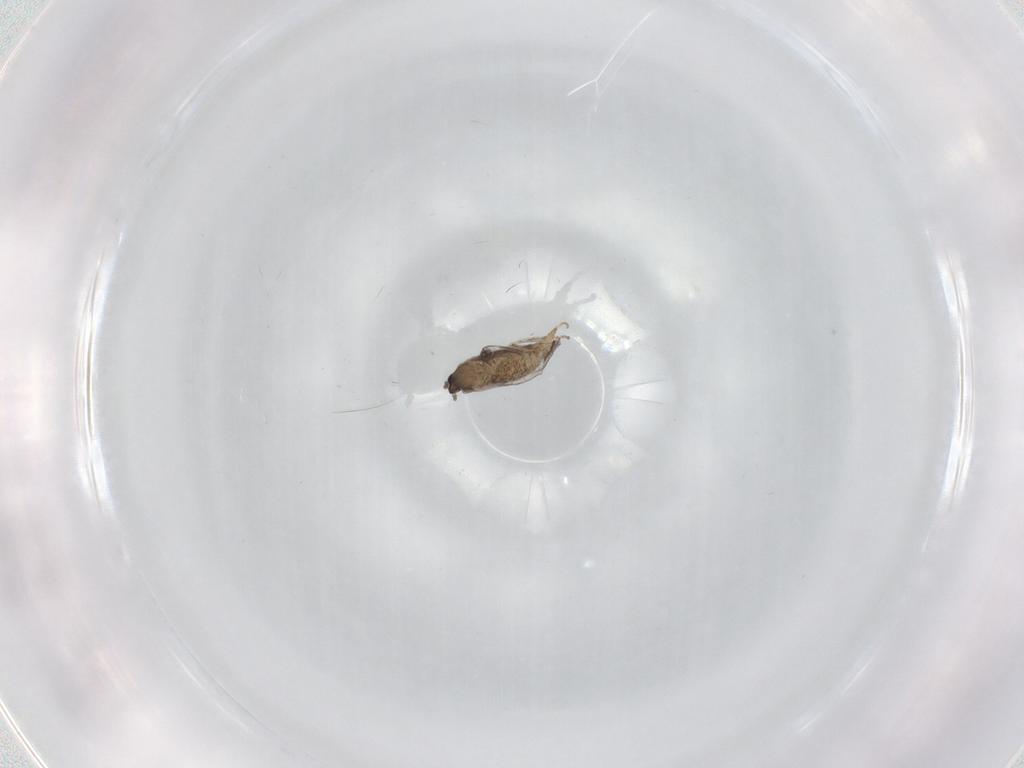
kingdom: Animalia
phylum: Arthropoda
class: Insecta
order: Diptera
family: Cecidomyiidae
